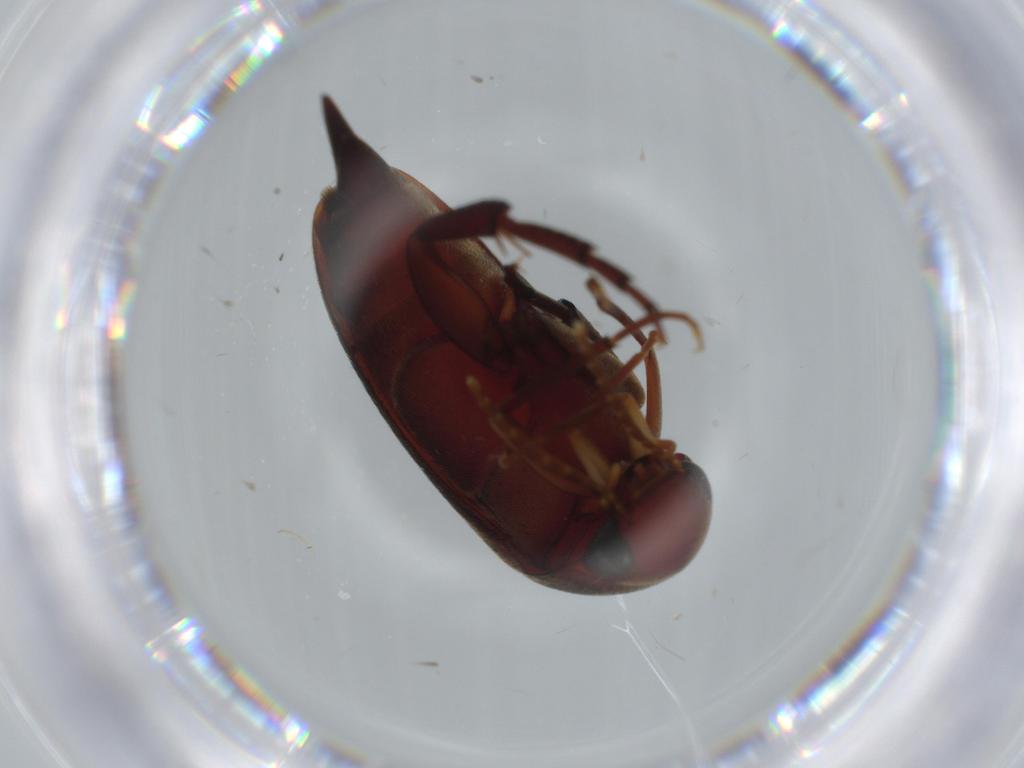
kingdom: Animalia
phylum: Arthropoda
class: Insecta
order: Coleoptera
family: Mordellidae
